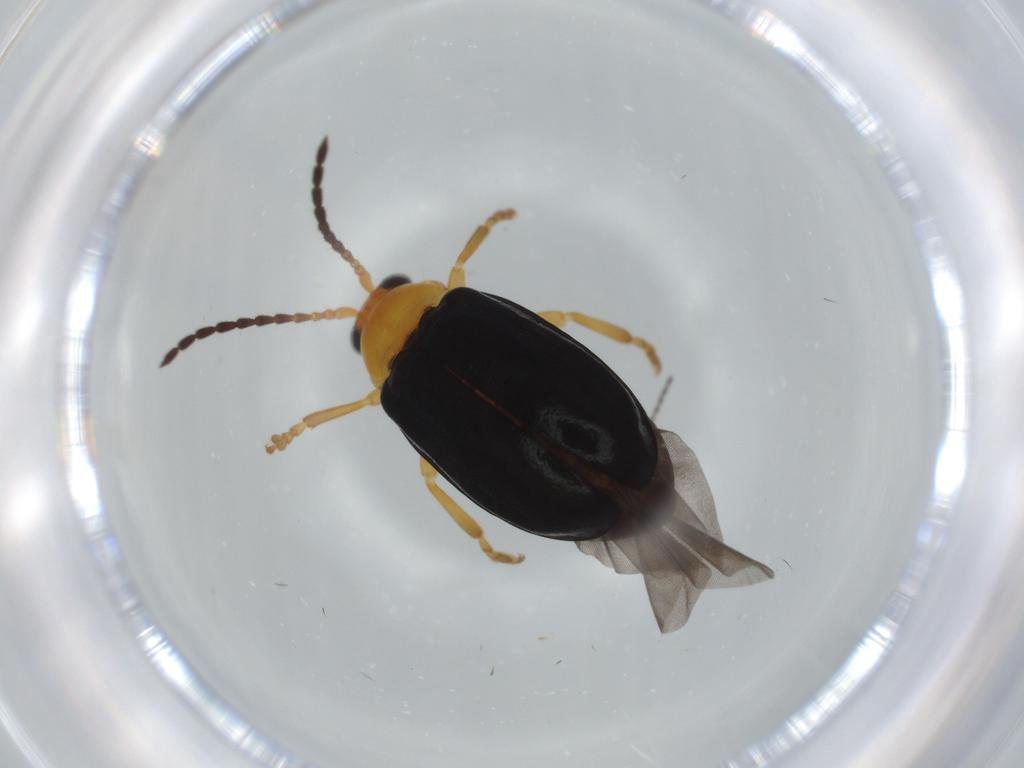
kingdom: Animalia
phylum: Arthropoda
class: Insecta
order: Coleoptera
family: Chrysomelidae
